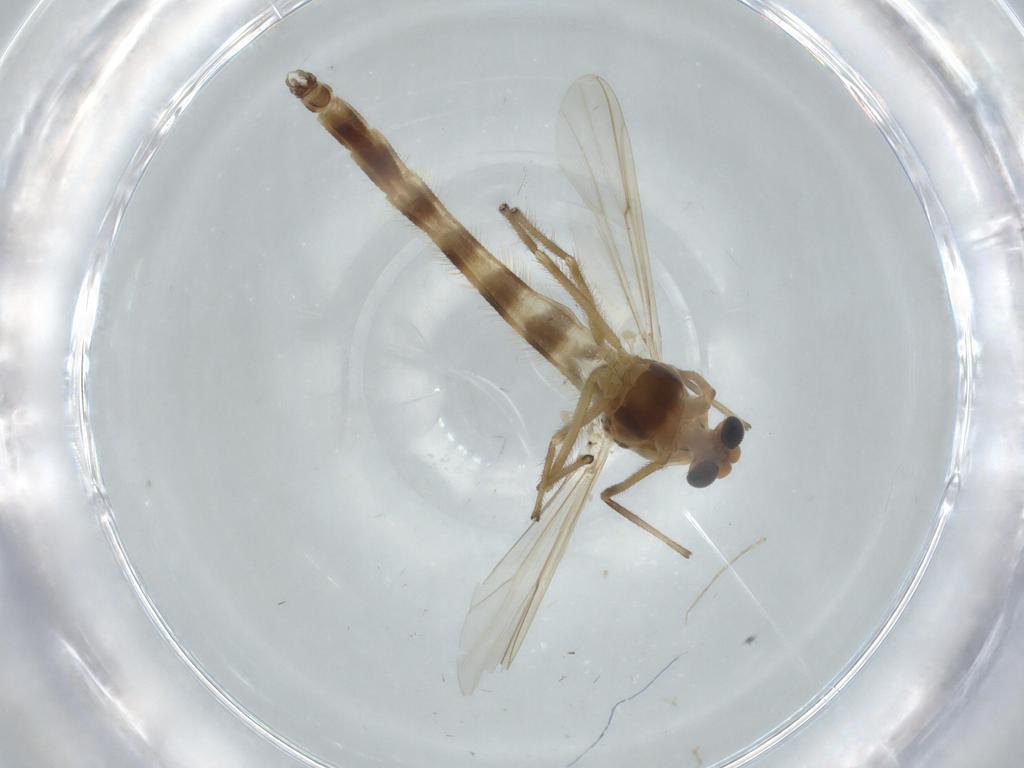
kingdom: Animalia
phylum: Arthropoda
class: Insecta
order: Diptera
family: Chironomidae
